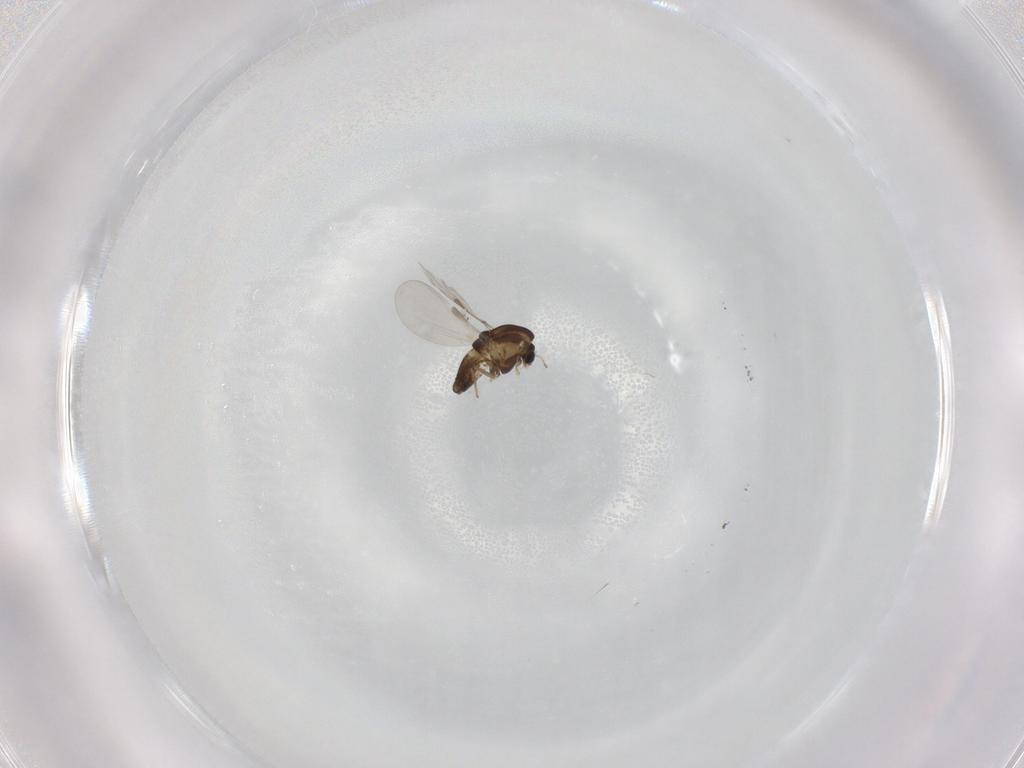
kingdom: Animalia
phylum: Arthropoda
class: Insecta
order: Diptera
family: Chironomidae
